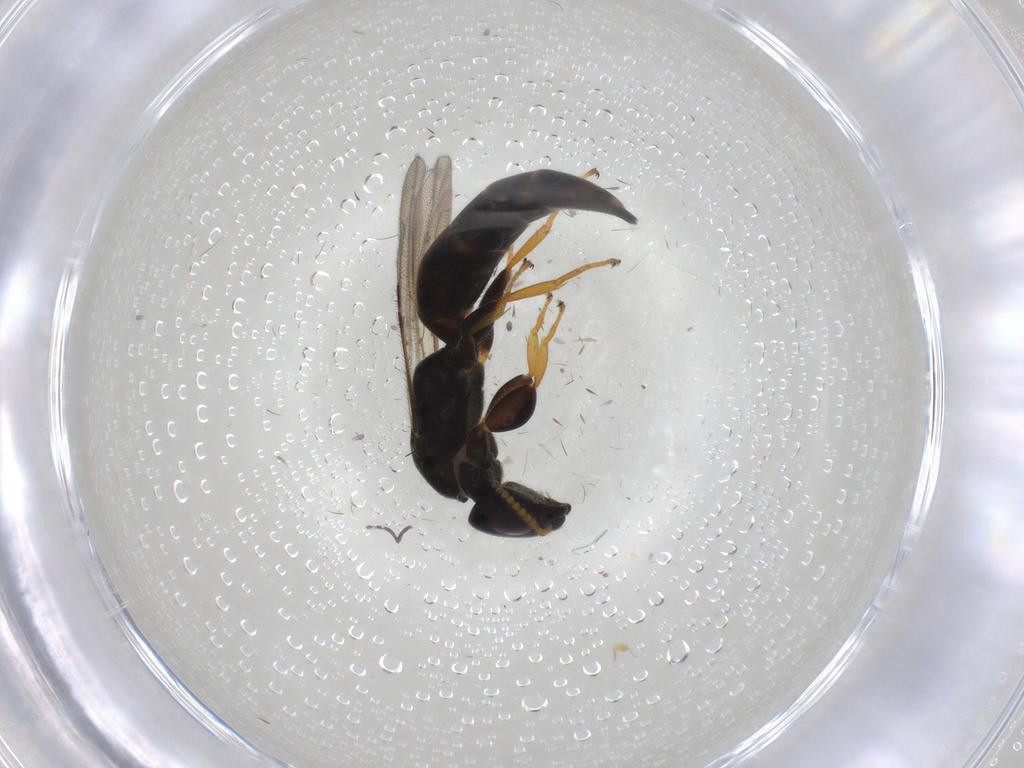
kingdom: Animalia
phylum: Arthropoda
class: Insecta
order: Hymenoptera
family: Bethylidae
